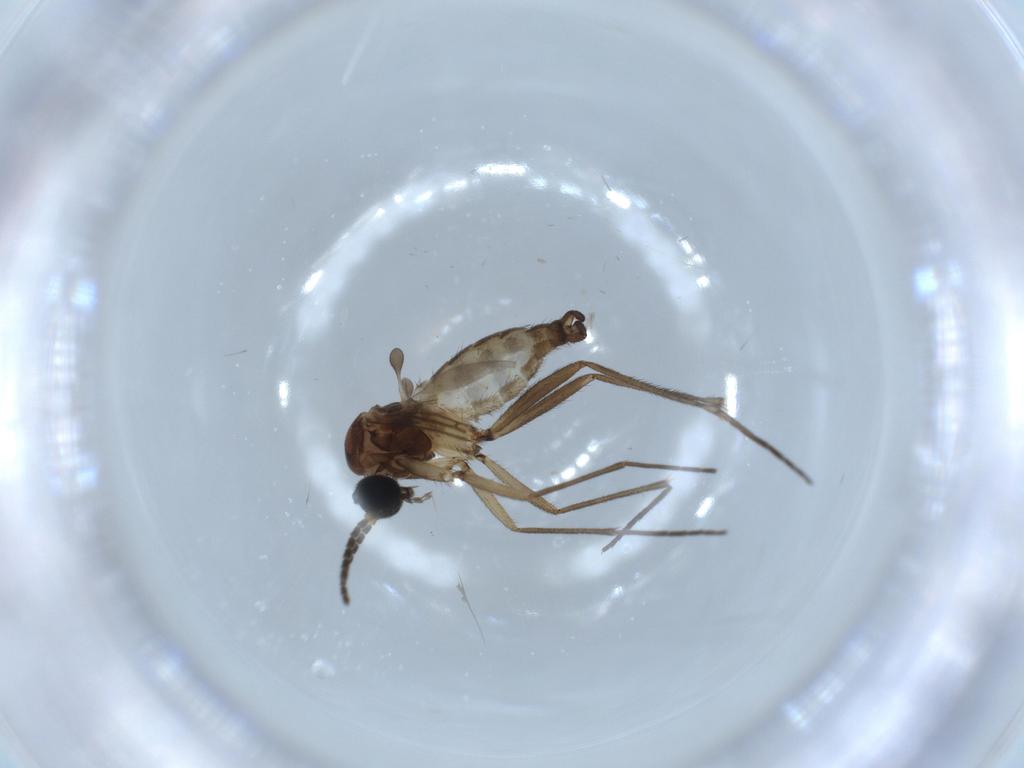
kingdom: Animalia
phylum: Arthropoda
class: Insecta
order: Diptera
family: Sciaridae
